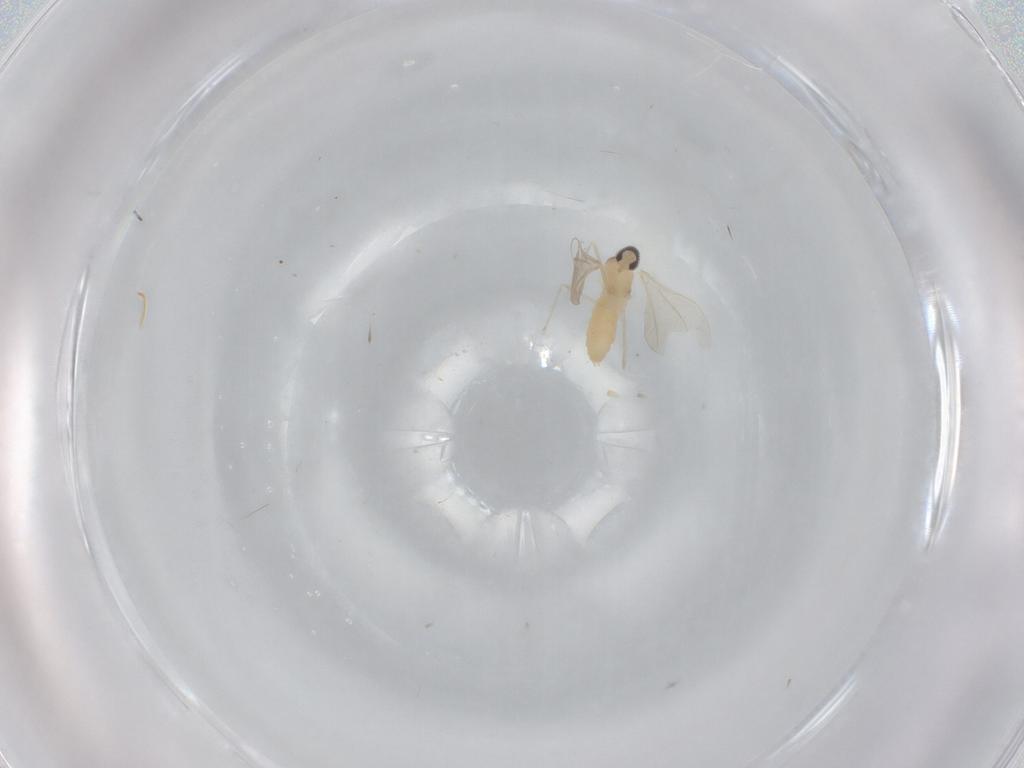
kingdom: Animalia
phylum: Arthropoda
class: Insecta
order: Diptera
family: Cecidomyiidae
